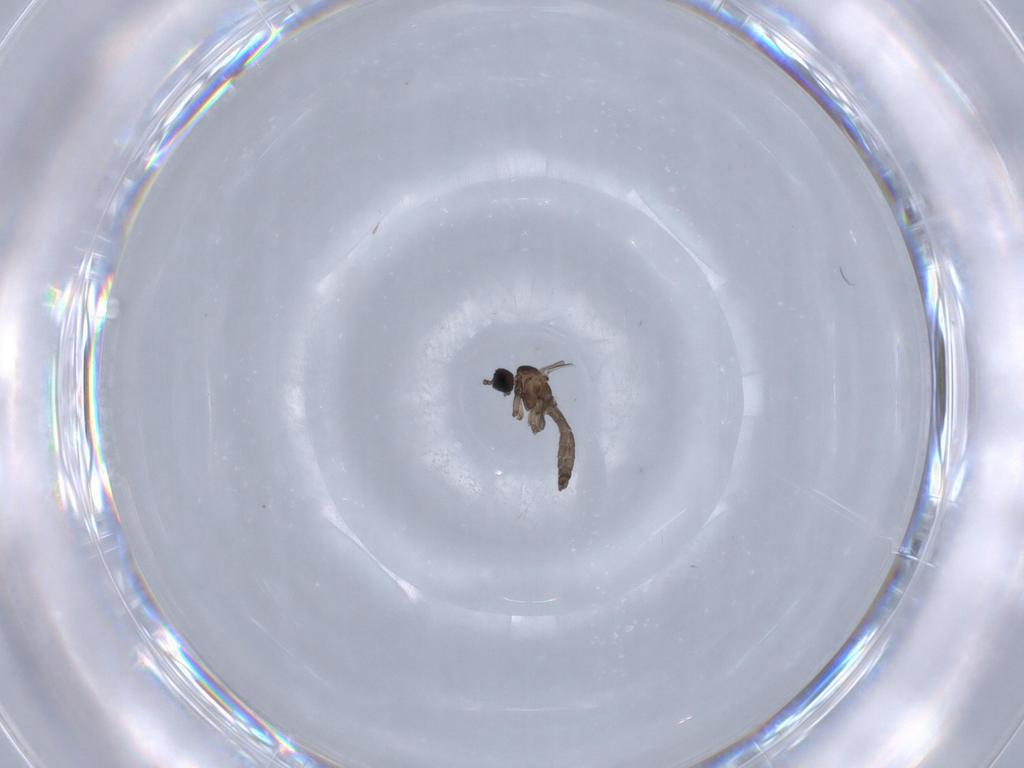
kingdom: Animalia
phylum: Arthropoda
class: Insecta
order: Diptera
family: Sciaridae
